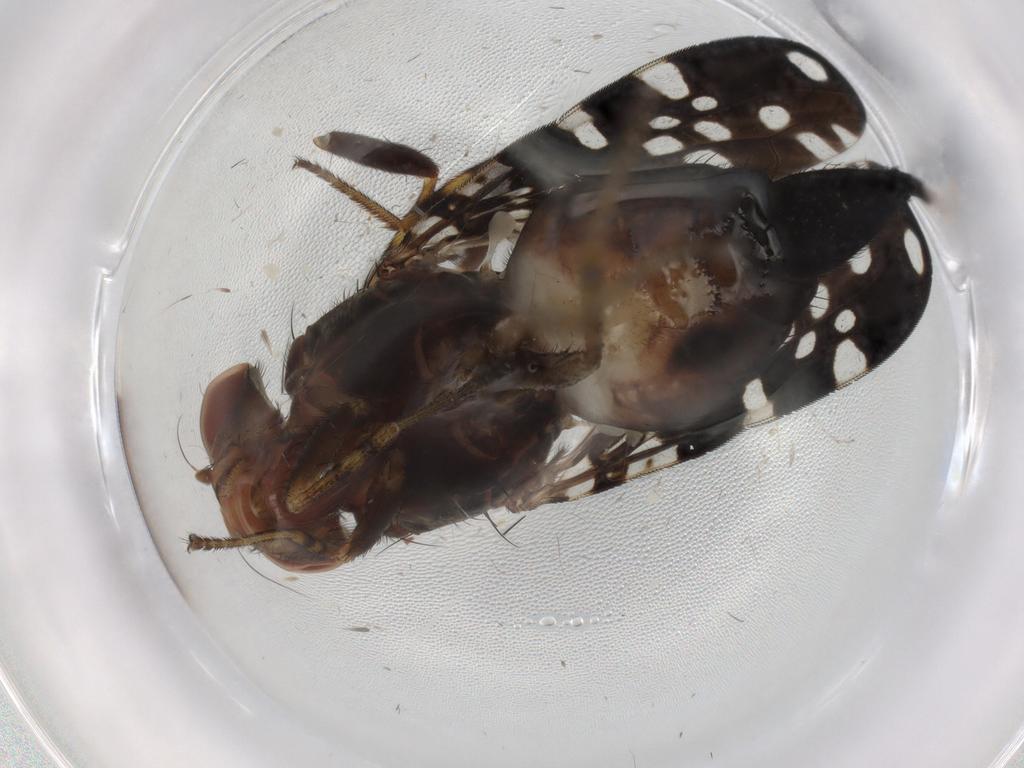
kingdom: Animalia
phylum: Arthropoda
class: Insecta
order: Diptera
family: Ulidiidae
